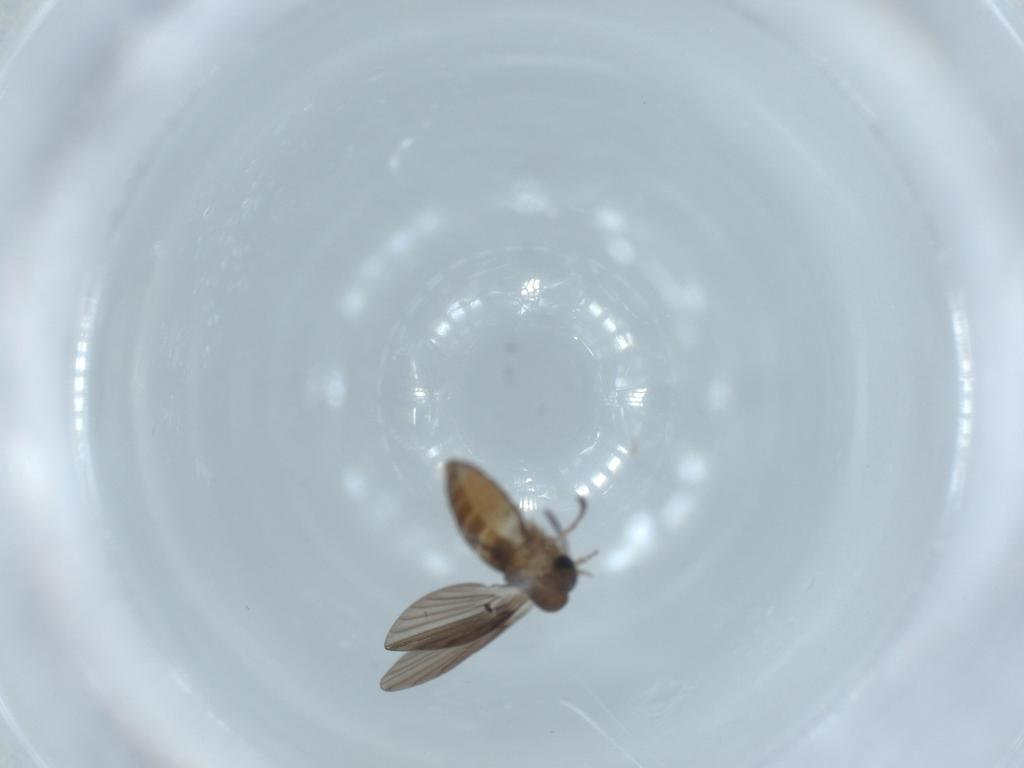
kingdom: Animalia
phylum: Arthropoda
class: Insecta
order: Diptera
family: Psychodidae
